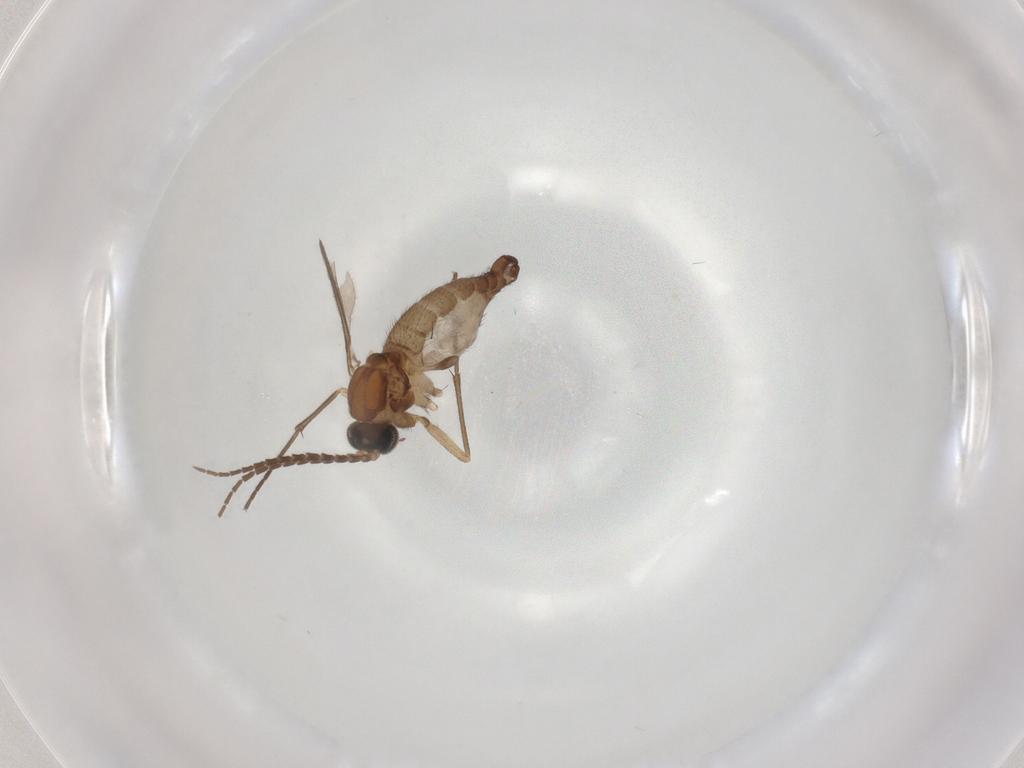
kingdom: Animalia
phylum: Arthropoda
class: Insecta
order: Diptera
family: Sciaridae
